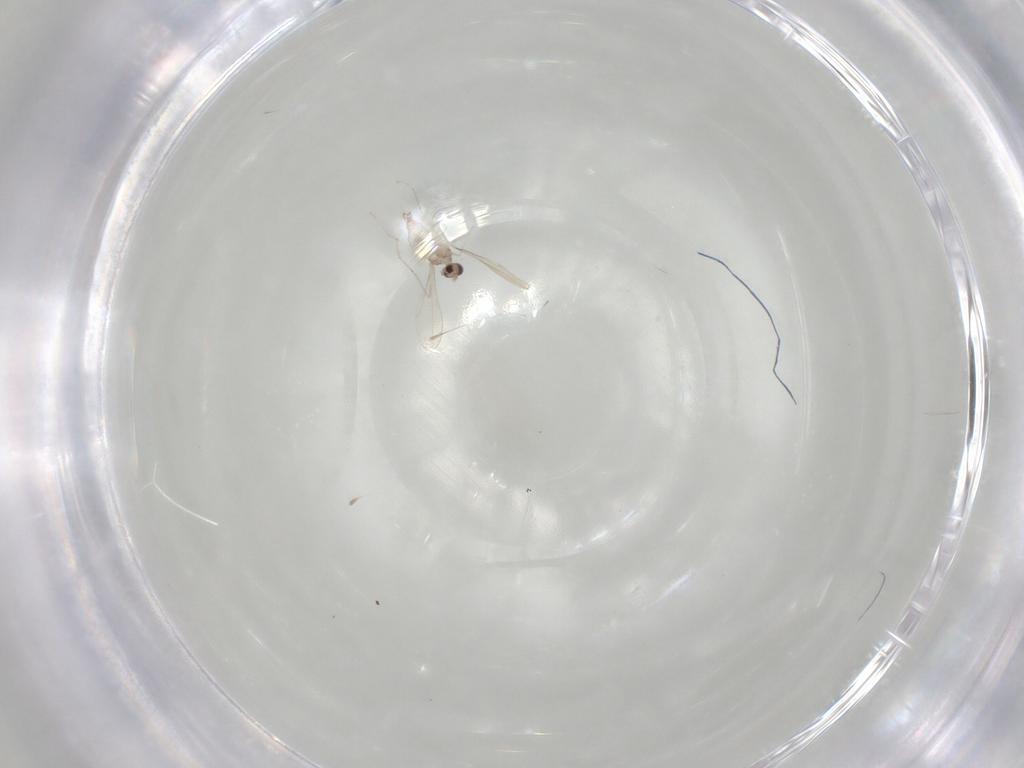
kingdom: Animalia
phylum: Arthropoda
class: Insecta
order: Diptera
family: Cecidomyiidae
